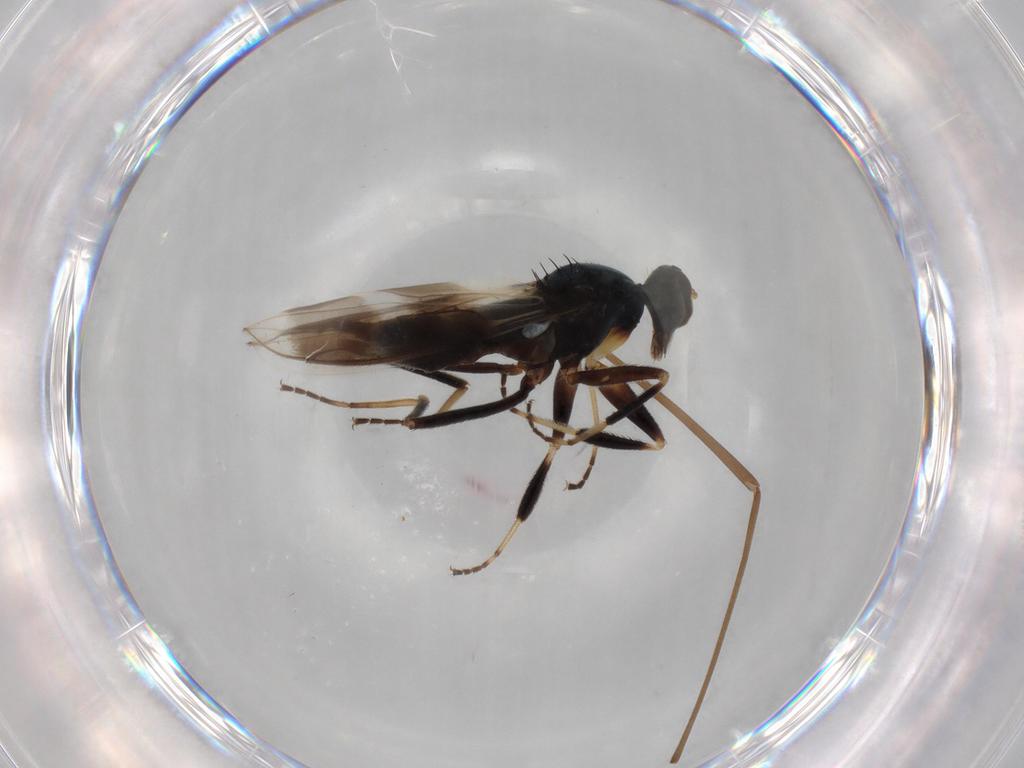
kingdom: Animalia
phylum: Arthropoda
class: Insecta
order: Diptera
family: Hybotidae
